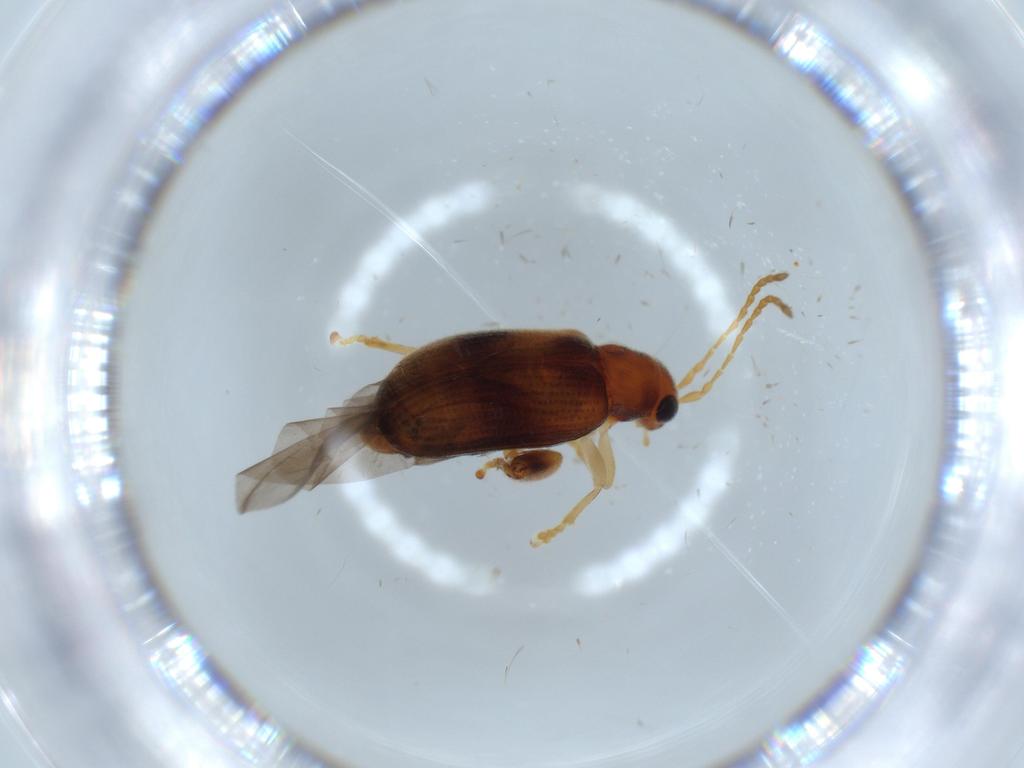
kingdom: Animalia
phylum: Arthropoda
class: Insecta
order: Coleoptera
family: Chrysomelidae
